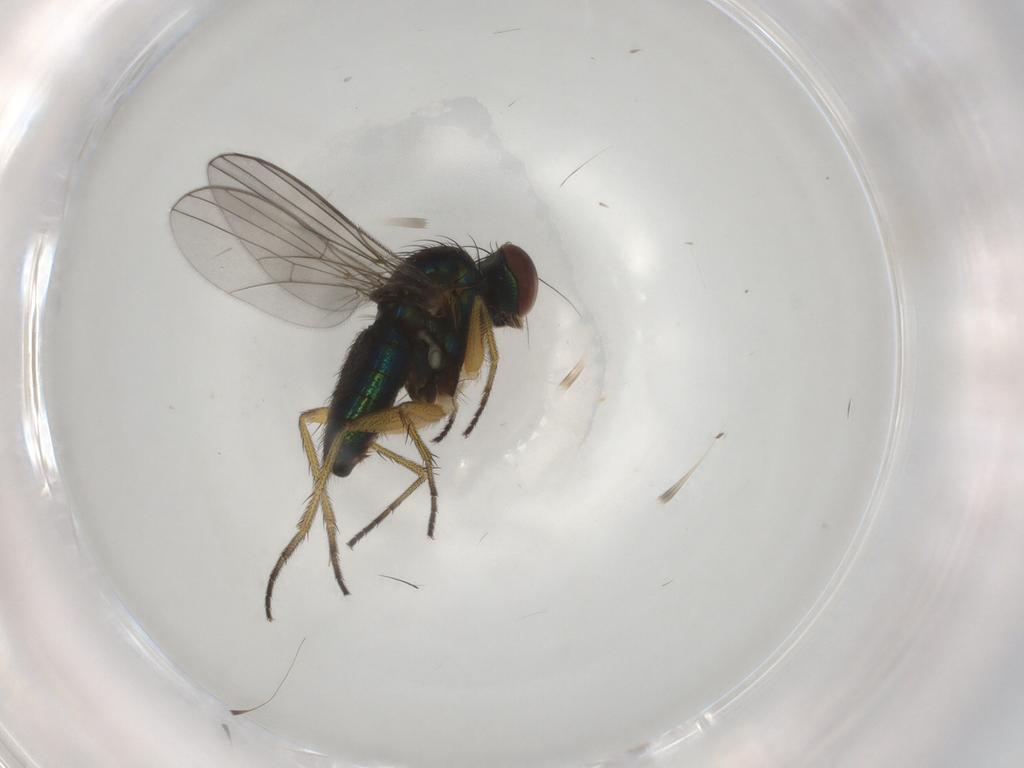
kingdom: Animalia
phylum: Arthropoda
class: Insecta
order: Diptera
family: Dolichopodidae
